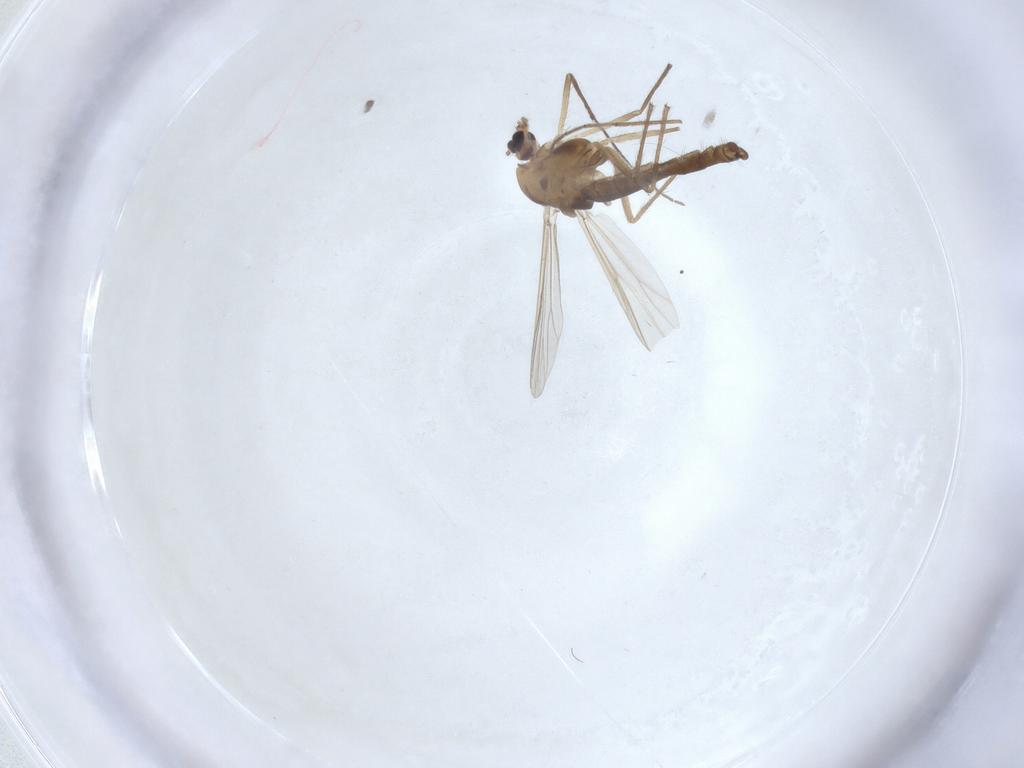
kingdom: Animalia
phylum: Arthropoda
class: Insecta
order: Diptera
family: Chironomidae
